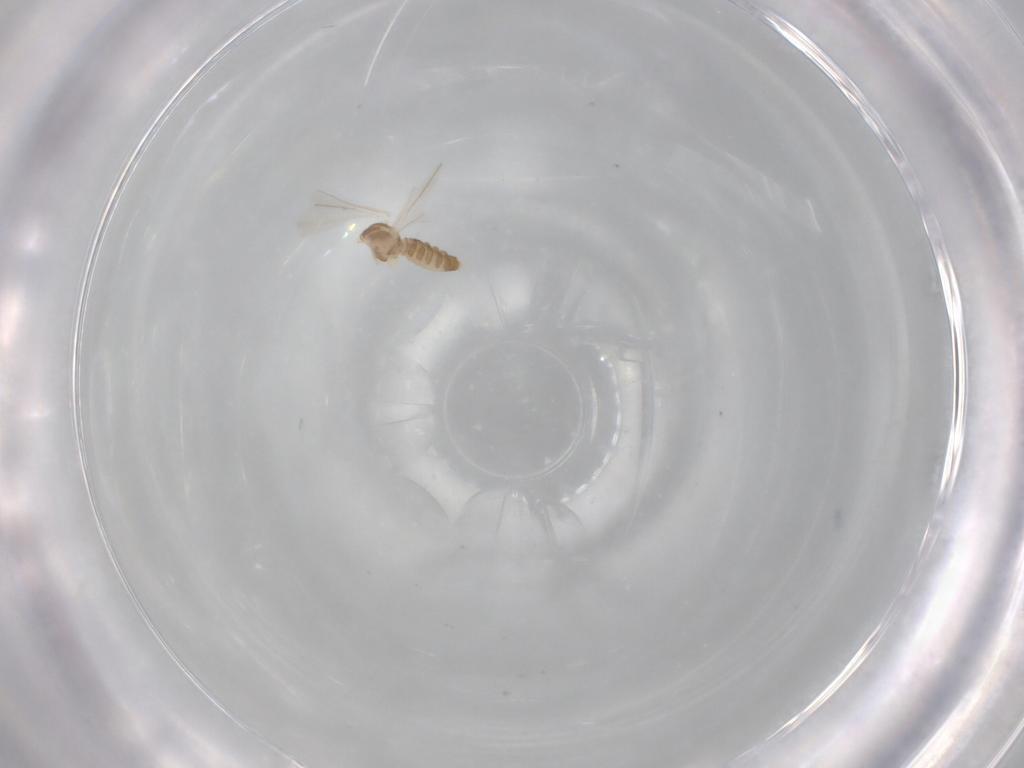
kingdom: Animalia
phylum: Arthropoda
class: Insecta
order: Diptera
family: Cecidomyiidae
